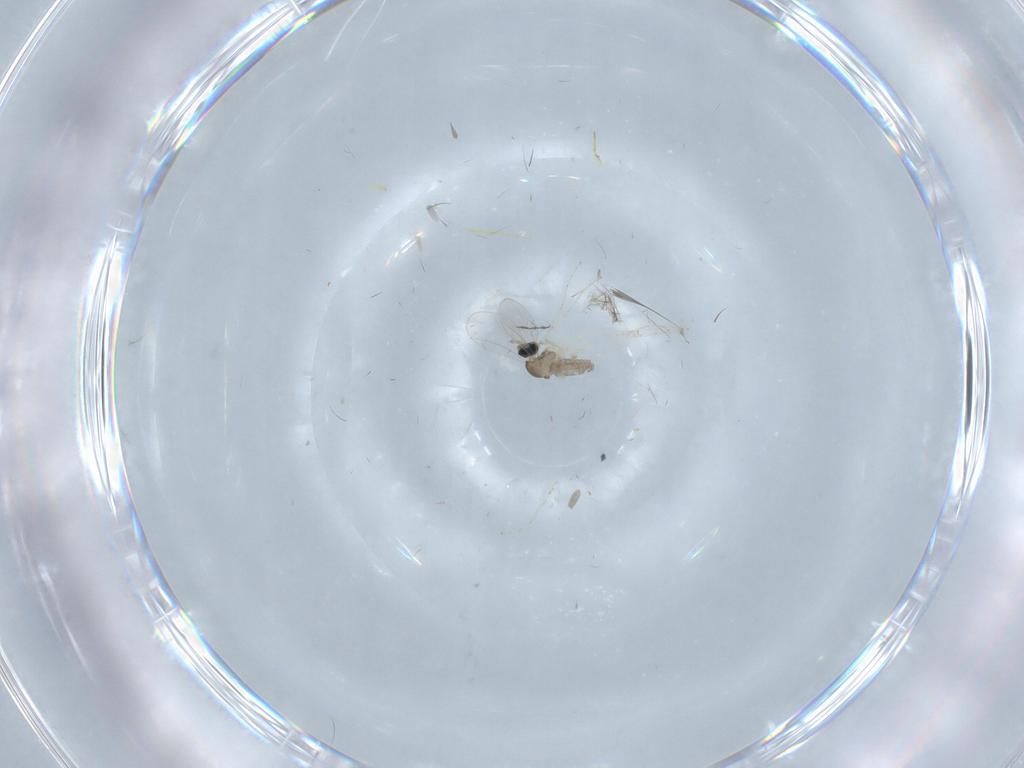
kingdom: Animalia
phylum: Arthropoda
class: Insecta
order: Diptera
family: Cecidomyiidae
